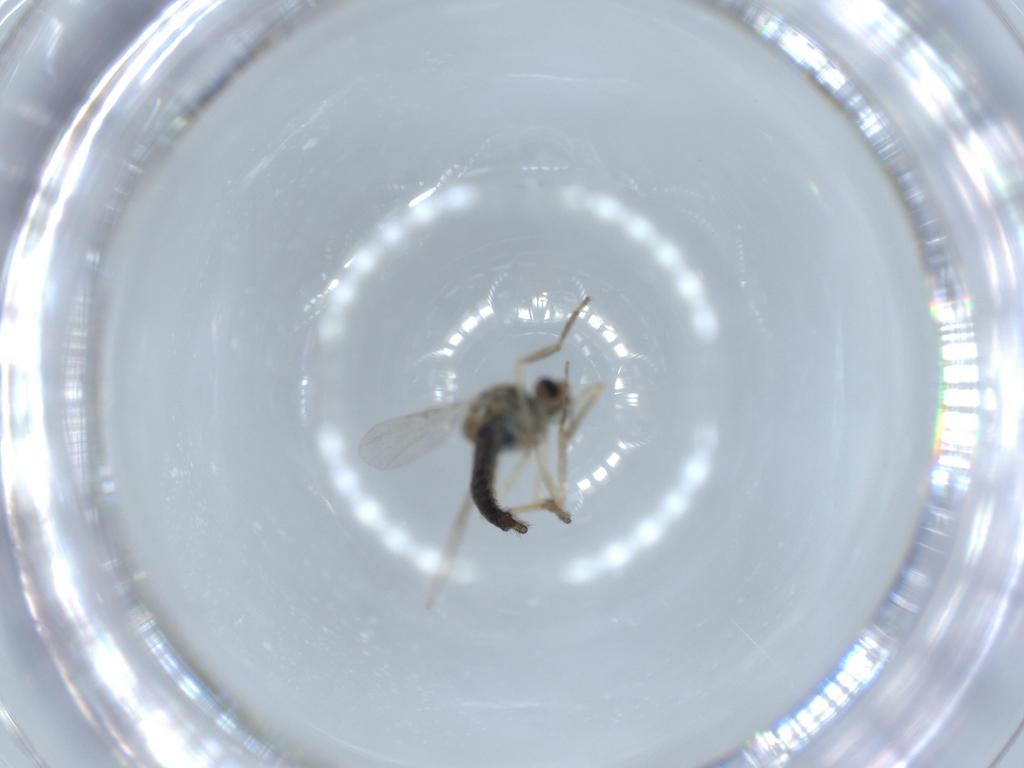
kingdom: Animalia
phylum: Arthropoda
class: Insecta
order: Diptera
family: Ceratopogonidae
